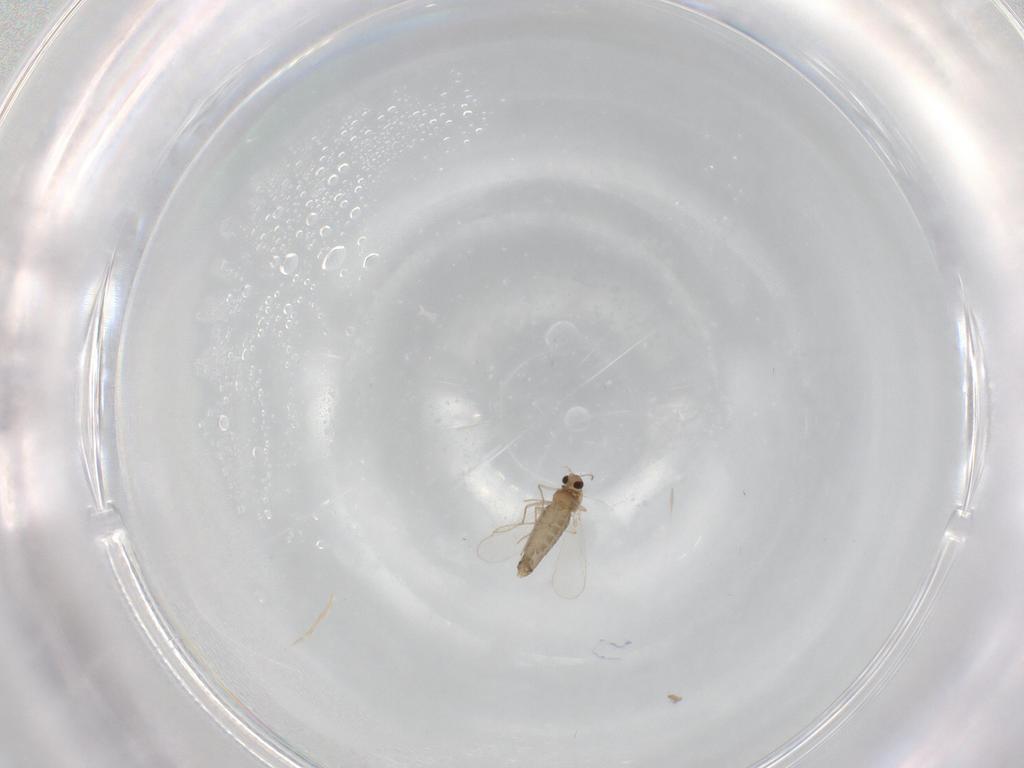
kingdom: Animalia
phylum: Arthropoda
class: Insecta
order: Diptera
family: Chironomidae
